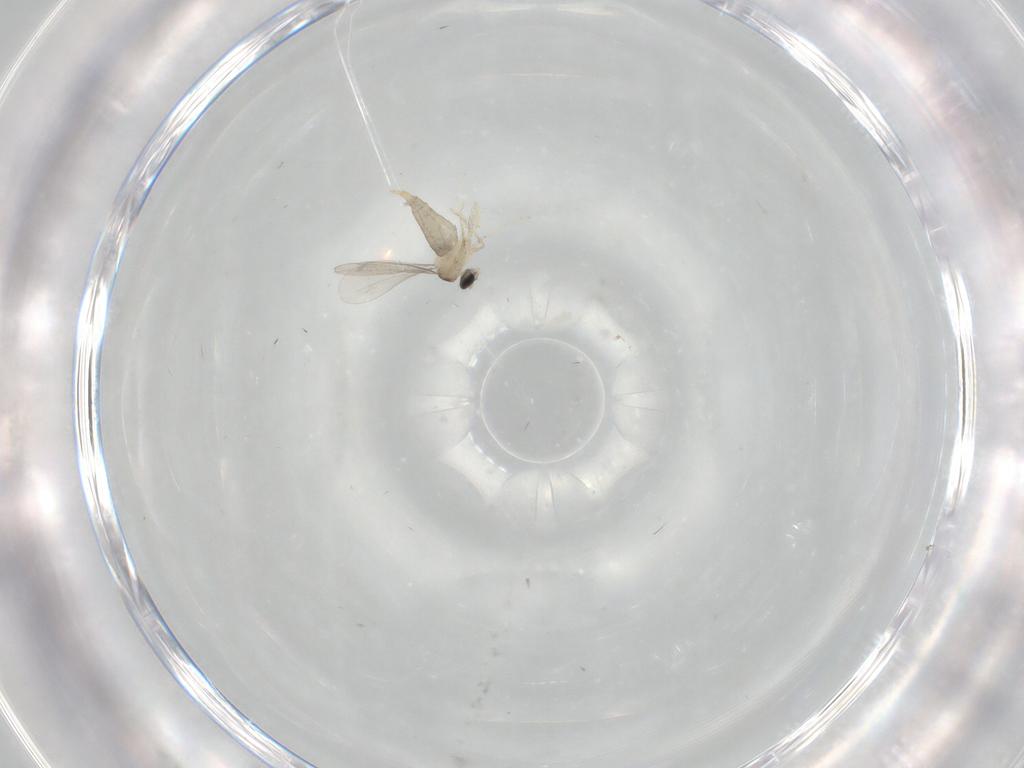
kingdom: Animalia
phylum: Arthropoda
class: Insecta
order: Diptera
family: Cecidomyiidae
